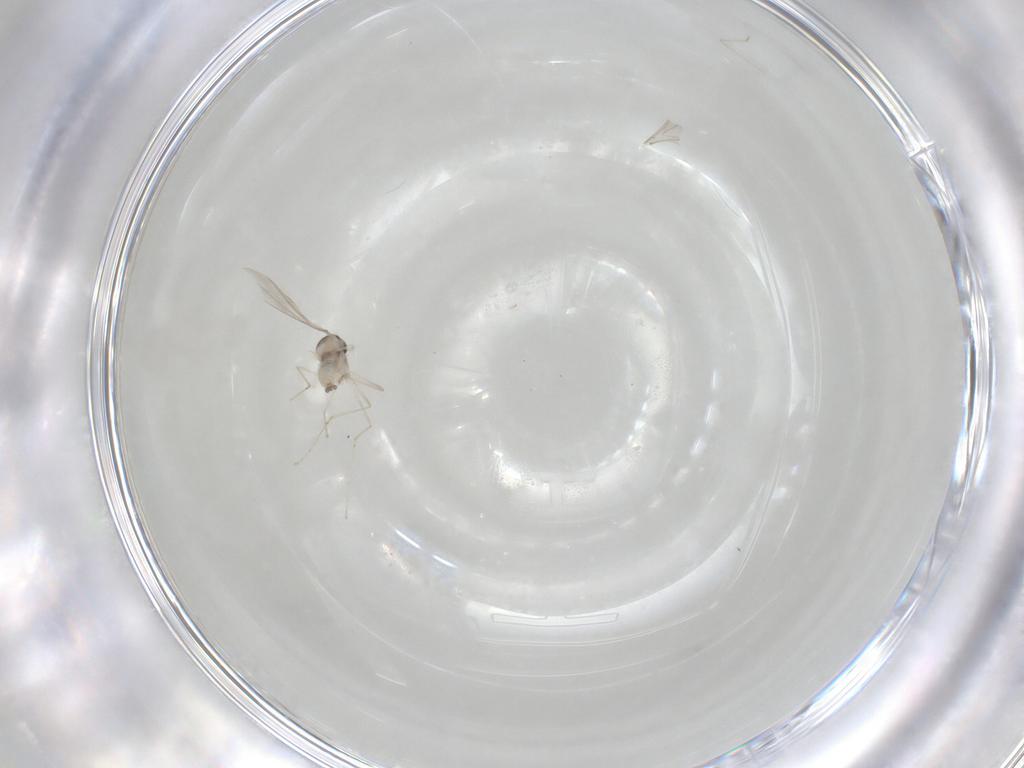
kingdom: Animalia
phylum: Arthropoda
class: Insecta
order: Diptera
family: Cecidomyiidae
